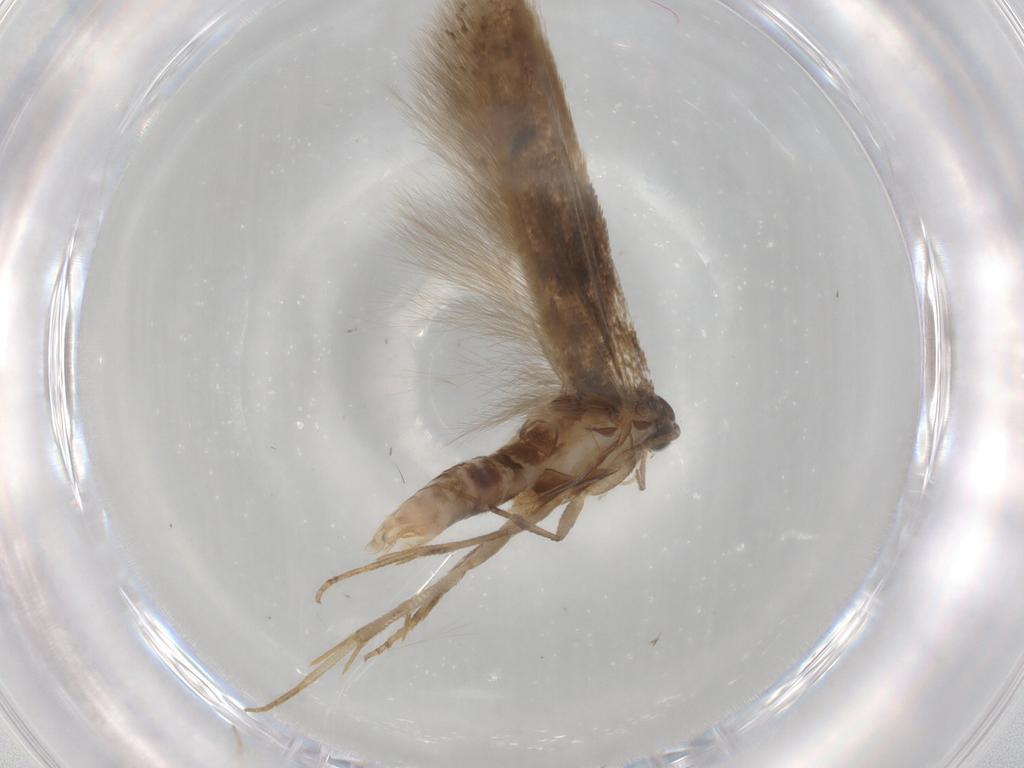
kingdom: Animalia
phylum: Arthropoda
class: Insecta
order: Lepidoptera
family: Gelechiidae
